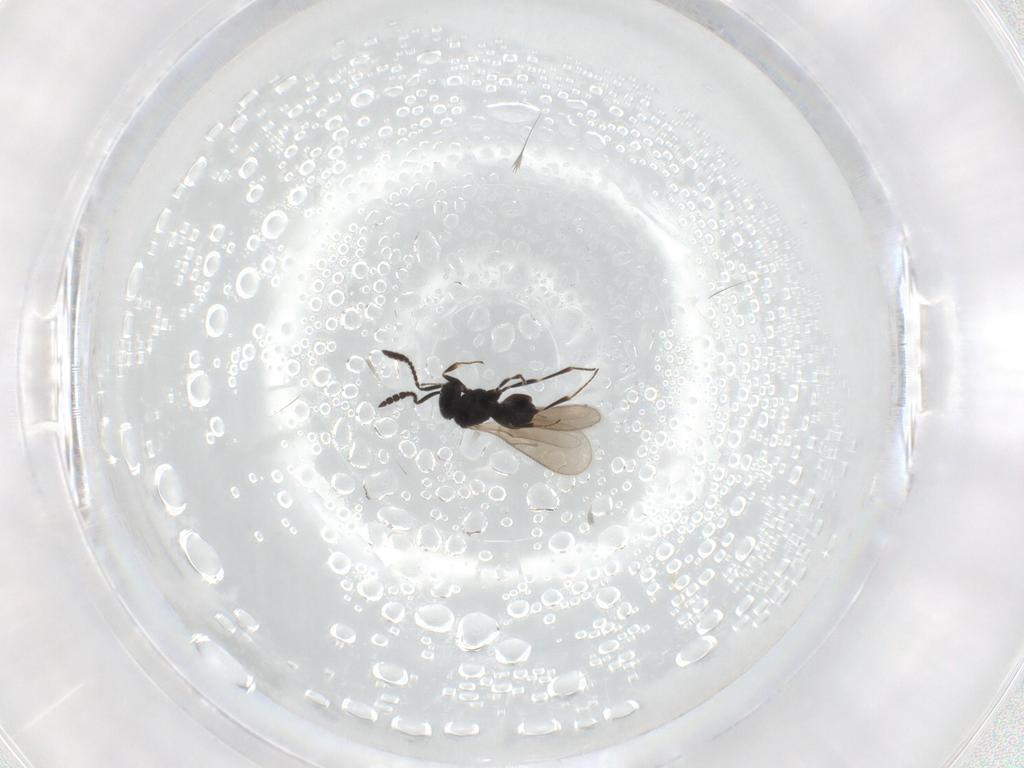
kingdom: Animalia
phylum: Arthropoda
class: Insecta
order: Hymenoptera
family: Scelionidae
